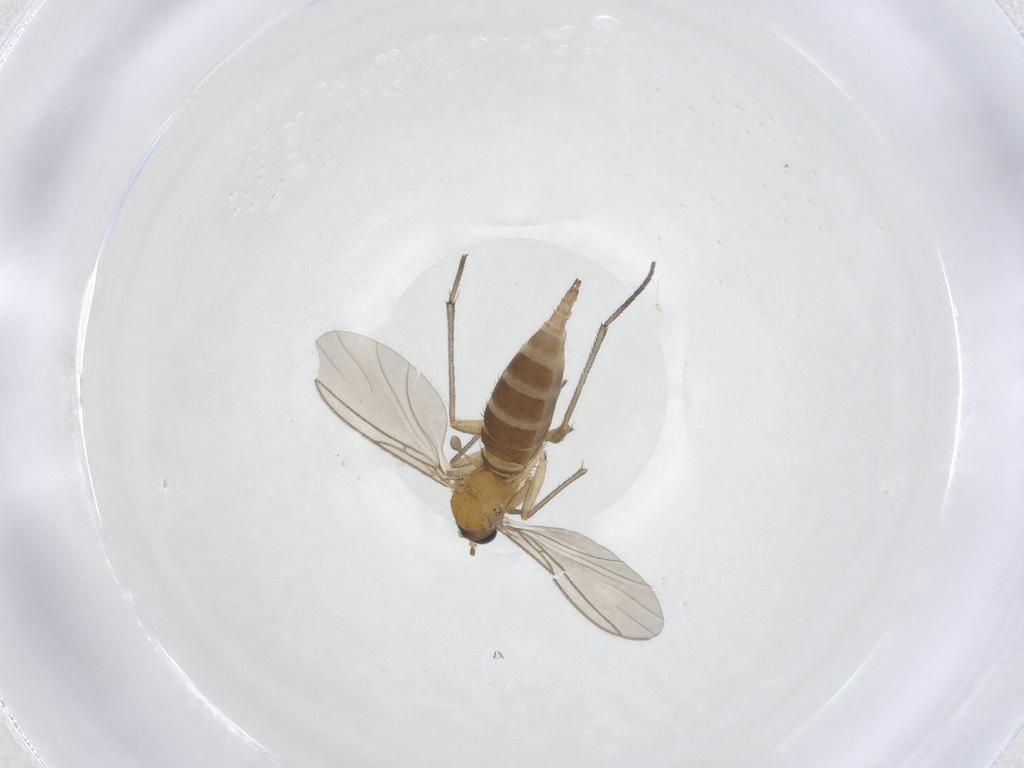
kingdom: Animalia
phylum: Arthropoda
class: Insecta
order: Diptera
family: Sciaridae
